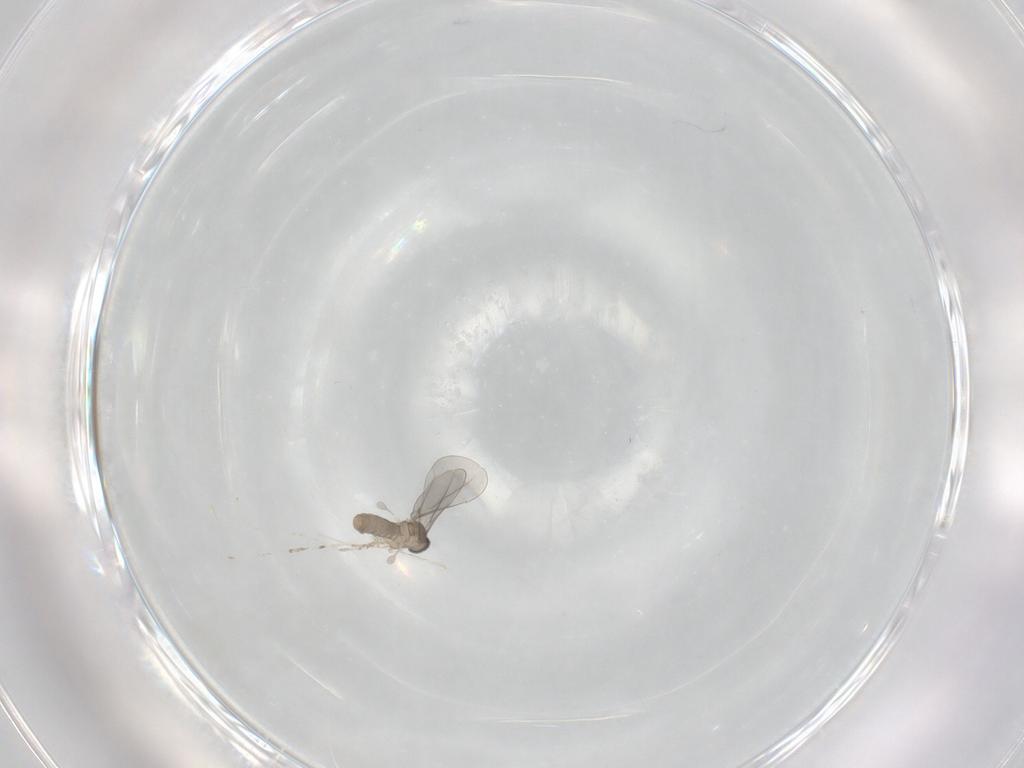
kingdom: Animalia
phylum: Arthropoda
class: Insecta
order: Diptera
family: Cecidomyiidae
